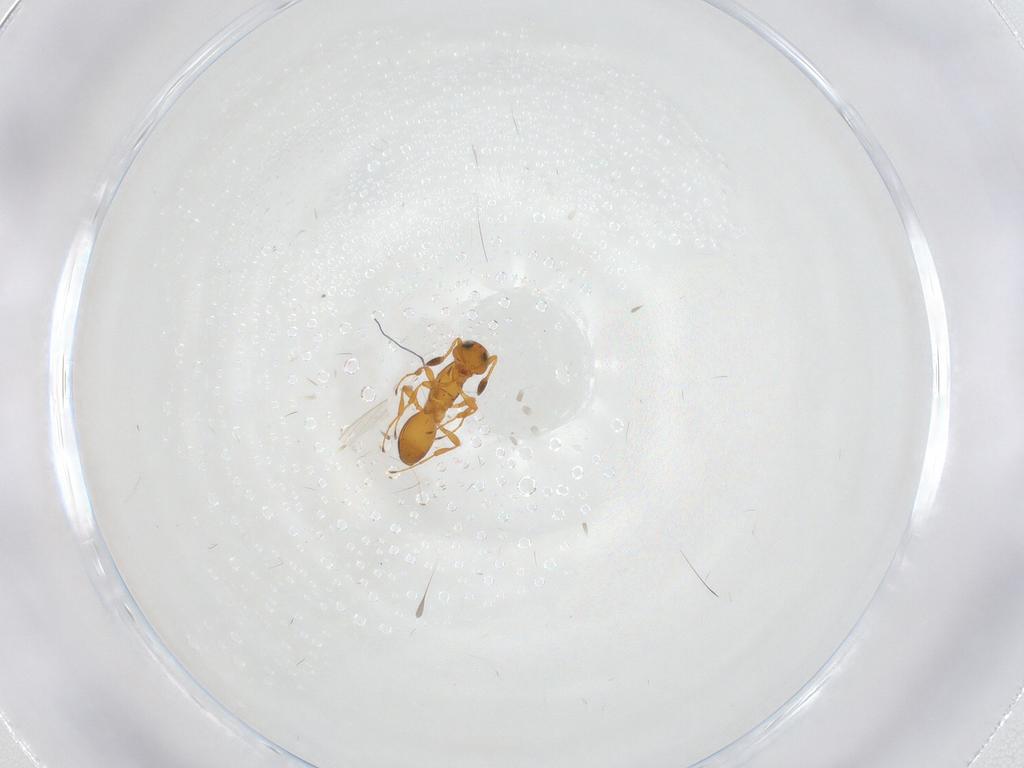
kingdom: Animalia
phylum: Arthropoda
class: Insecta
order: Hymenoptera
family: Platygastridae
